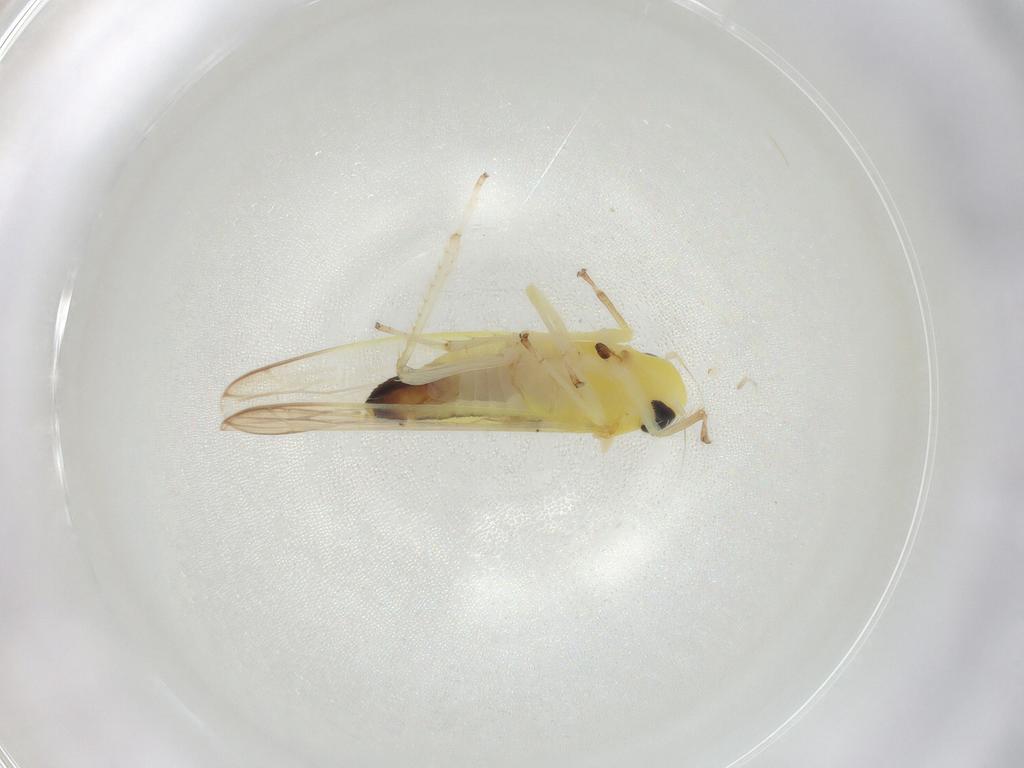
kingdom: Animalia
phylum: Arthropoda
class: Insecta
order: Hemiptera
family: Cicadellidae
